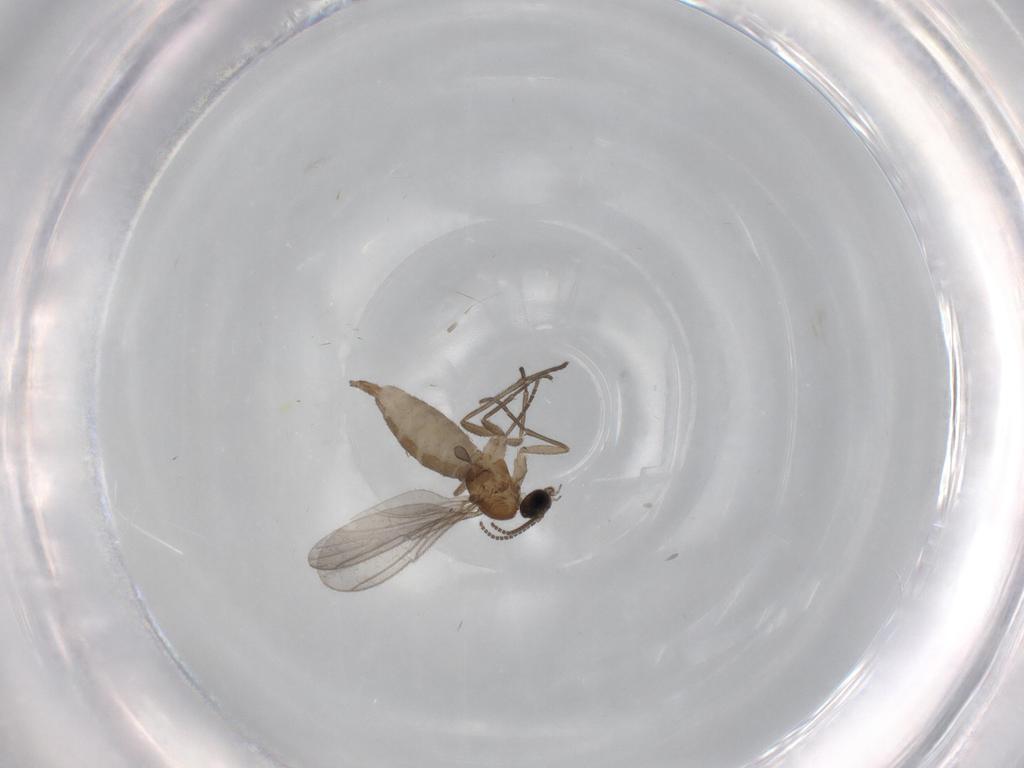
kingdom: Animalia
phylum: Arthropoda
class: Insecta
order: Diptera
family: Sciaridae
